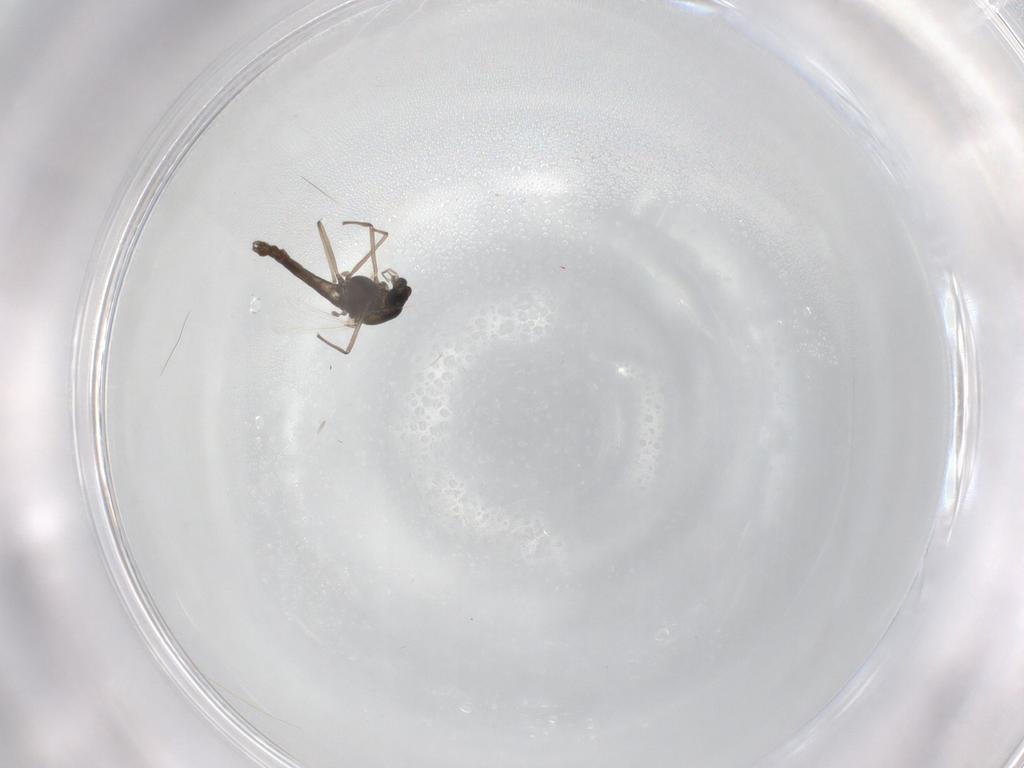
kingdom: Animalia
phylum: Arthropoda
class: Insecta
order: Diptera
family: Chironomidae
